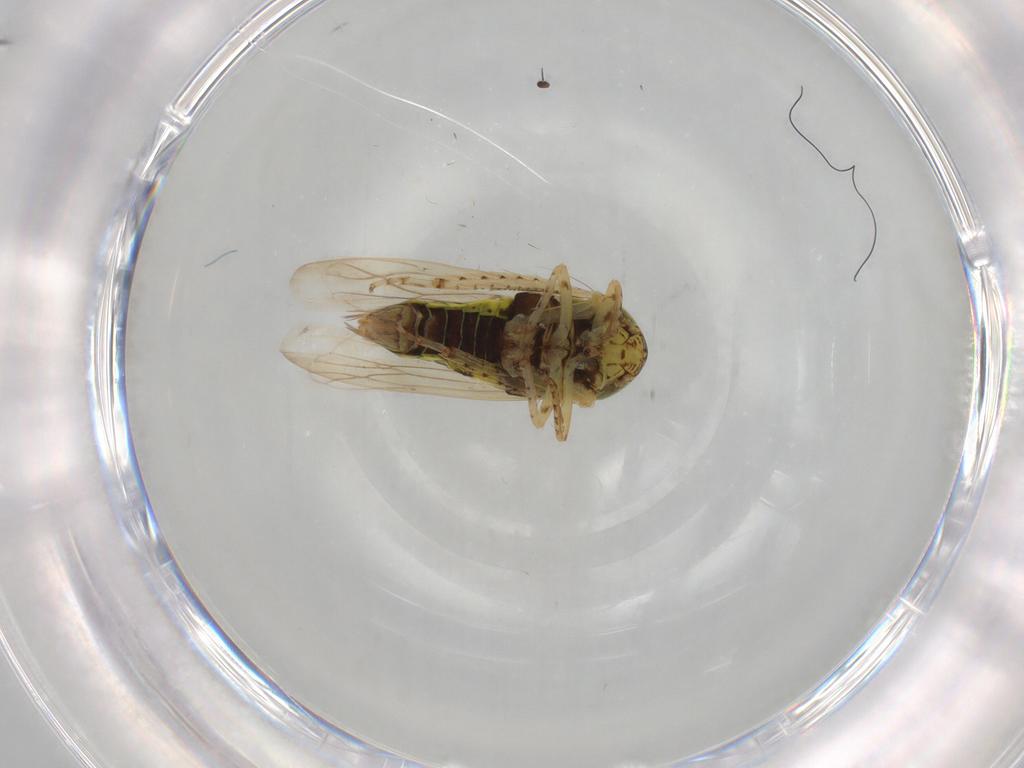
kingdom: Animalia
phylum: Arthropoda
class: Insecta
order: Hemiptera
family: Cicadellidae
